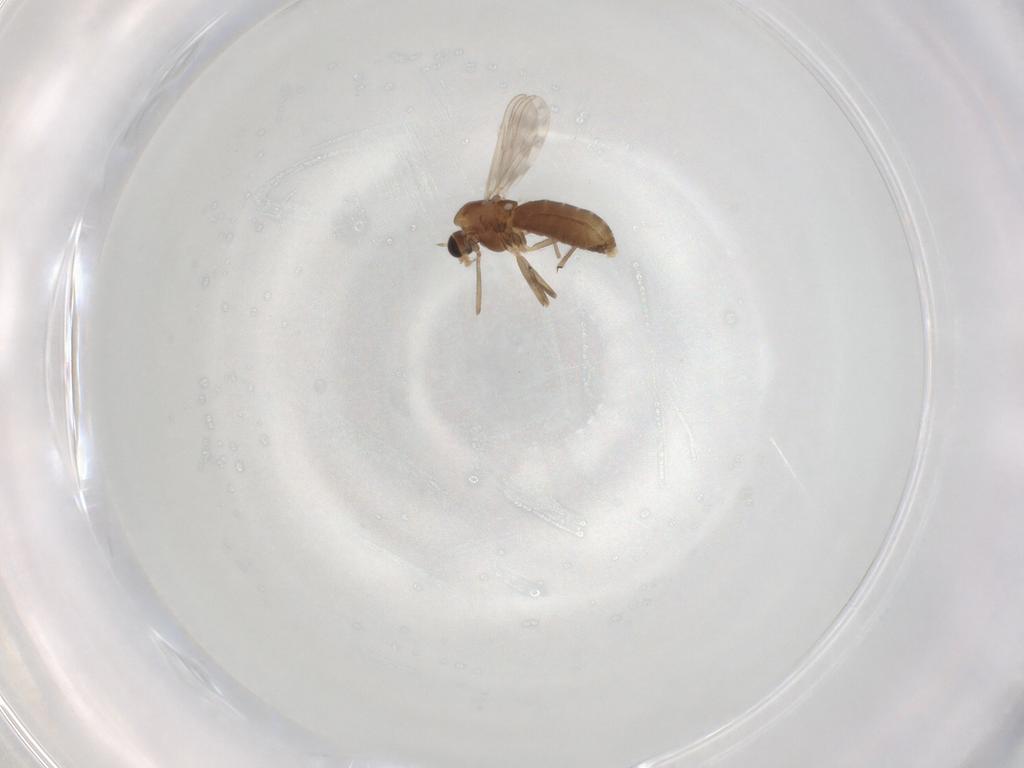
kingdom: Animalia
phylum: Arthropoda
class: Insecta
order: Diptera
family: Chironomidae
